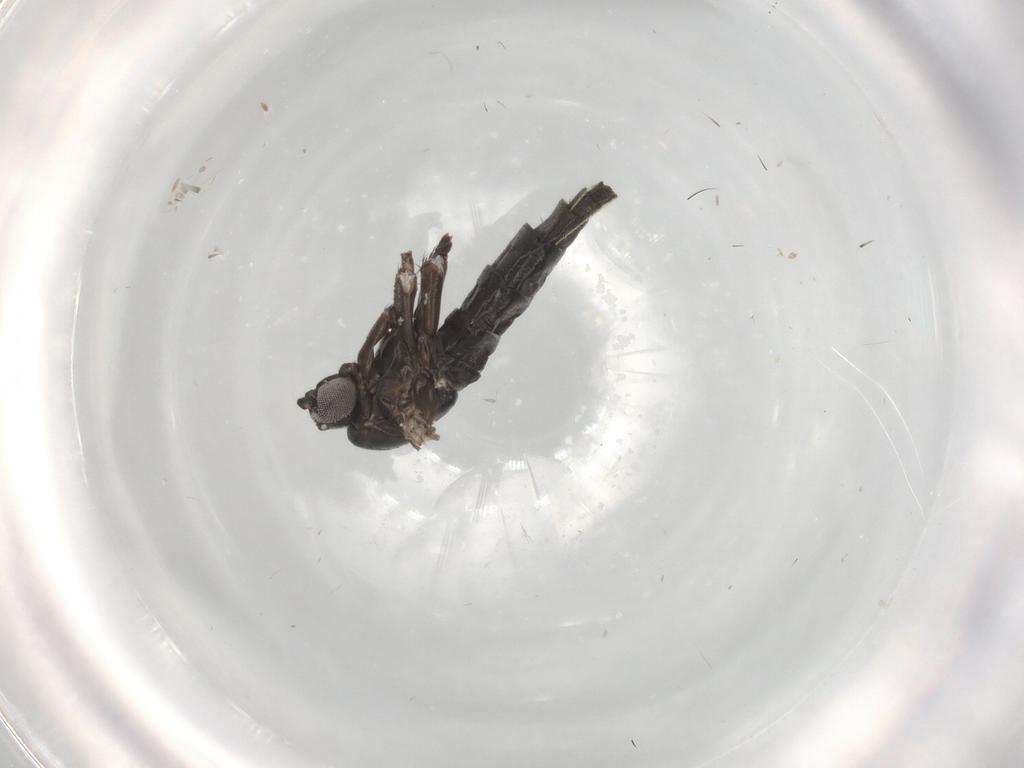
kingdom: Animalia
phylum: Arthropoda
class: Insecta
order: Diptera
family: Sciaridae
